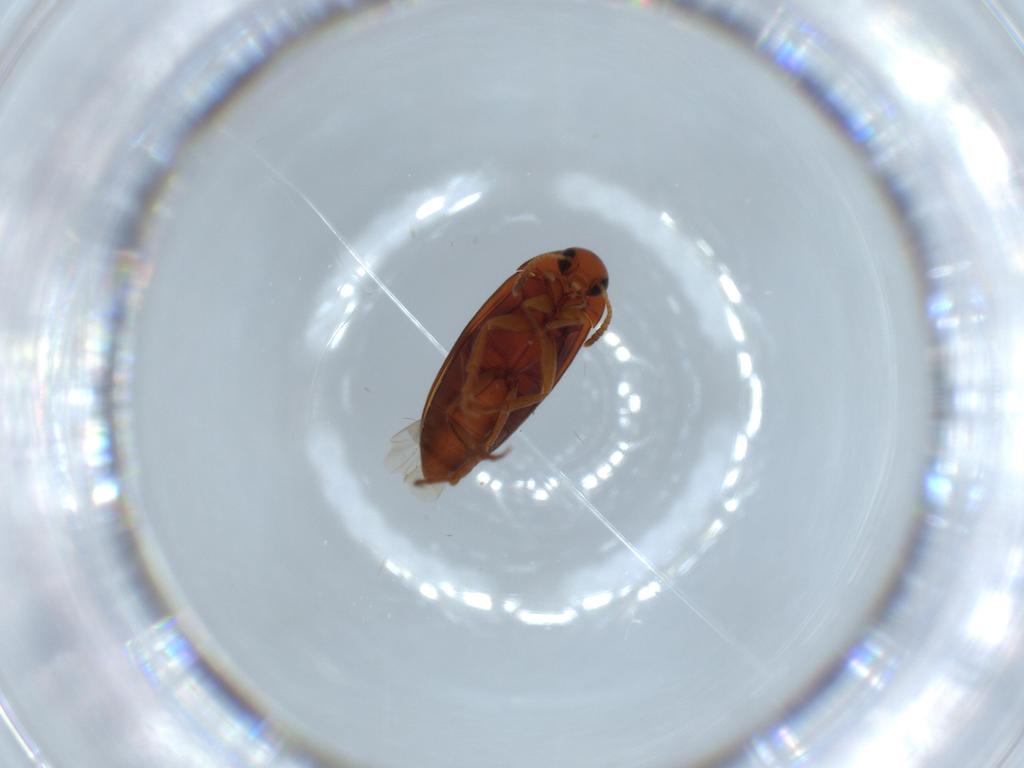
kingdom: Animalia
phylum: Arthropoda
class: Insecta
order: Coleoptera
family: Scraptiidae
